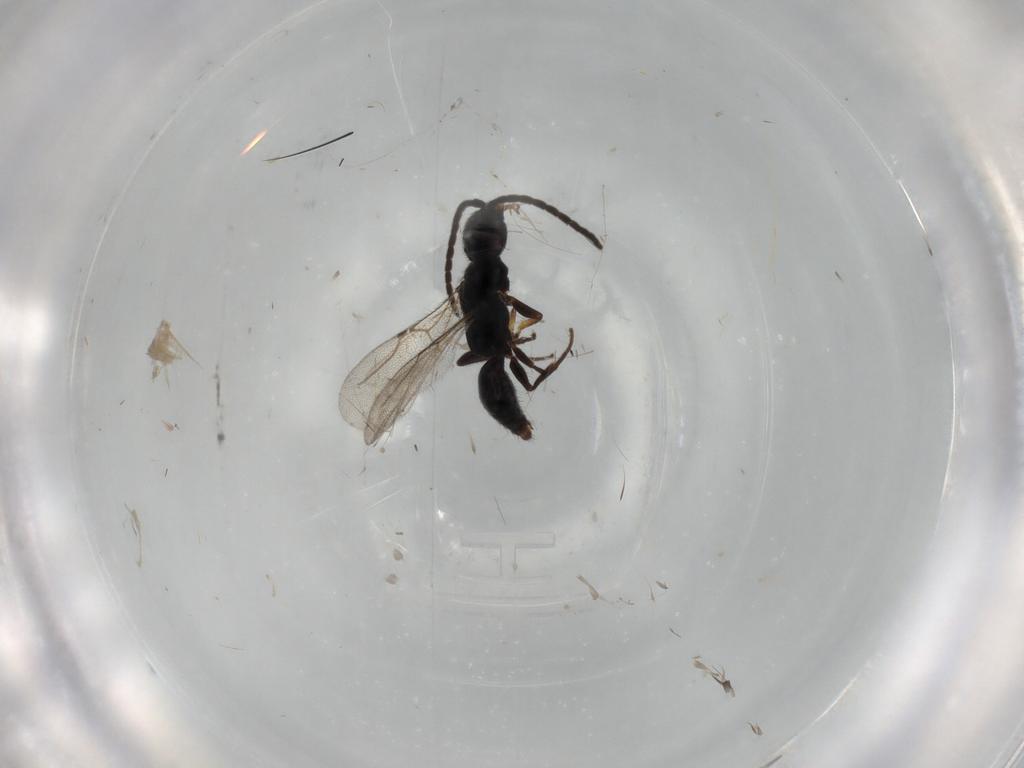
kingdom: Animalia
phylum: Arthropoda
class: Insecta
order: Hymenoptera
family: Bethylidae
